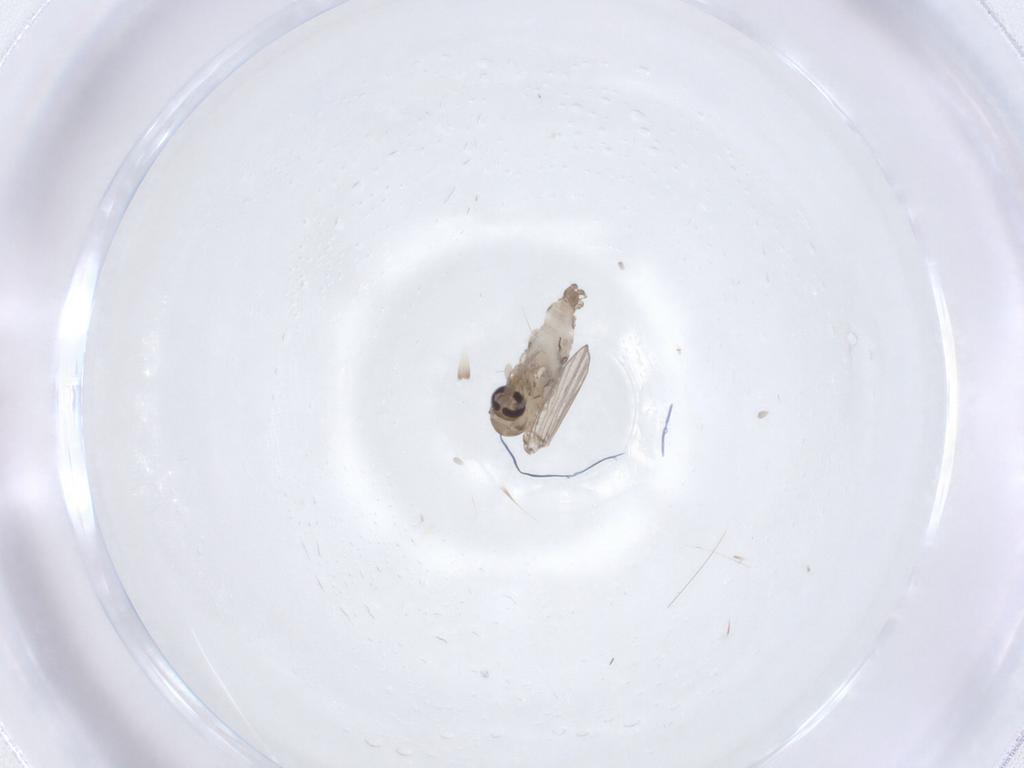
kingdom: Animalia
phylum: Arthropoda
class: Insecta
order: Diptera
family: Psychodidae
